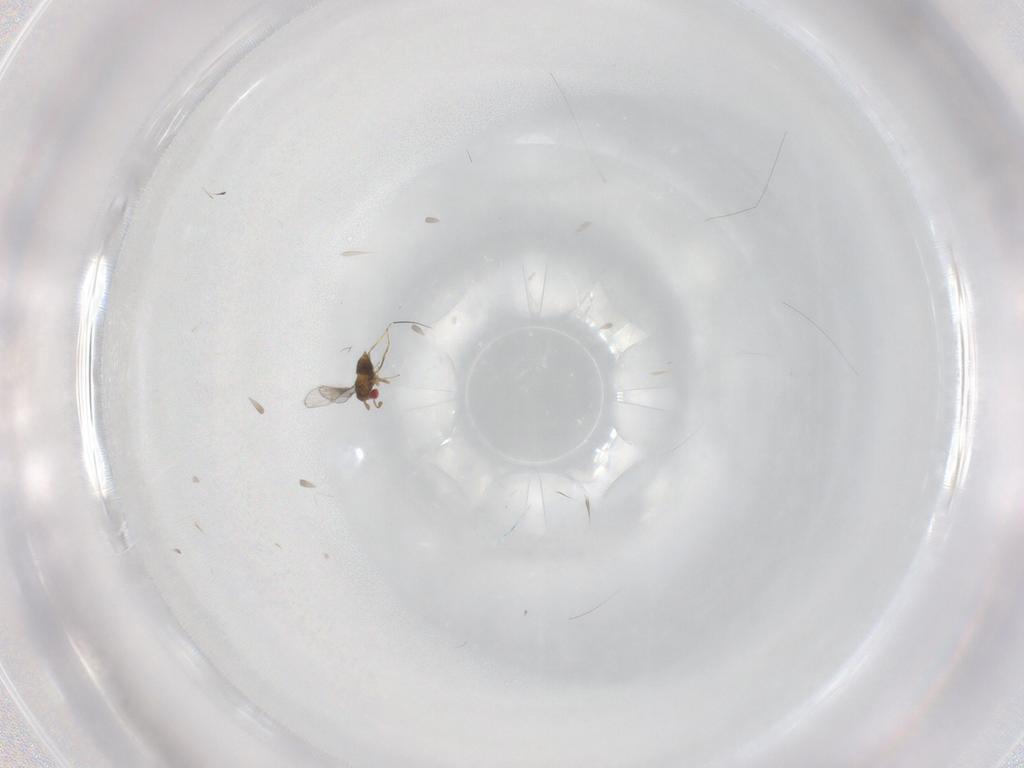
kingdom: Animalia
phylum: Arthropoda
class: Insecta
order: Hymenoptera
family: Trichogrammatidae
